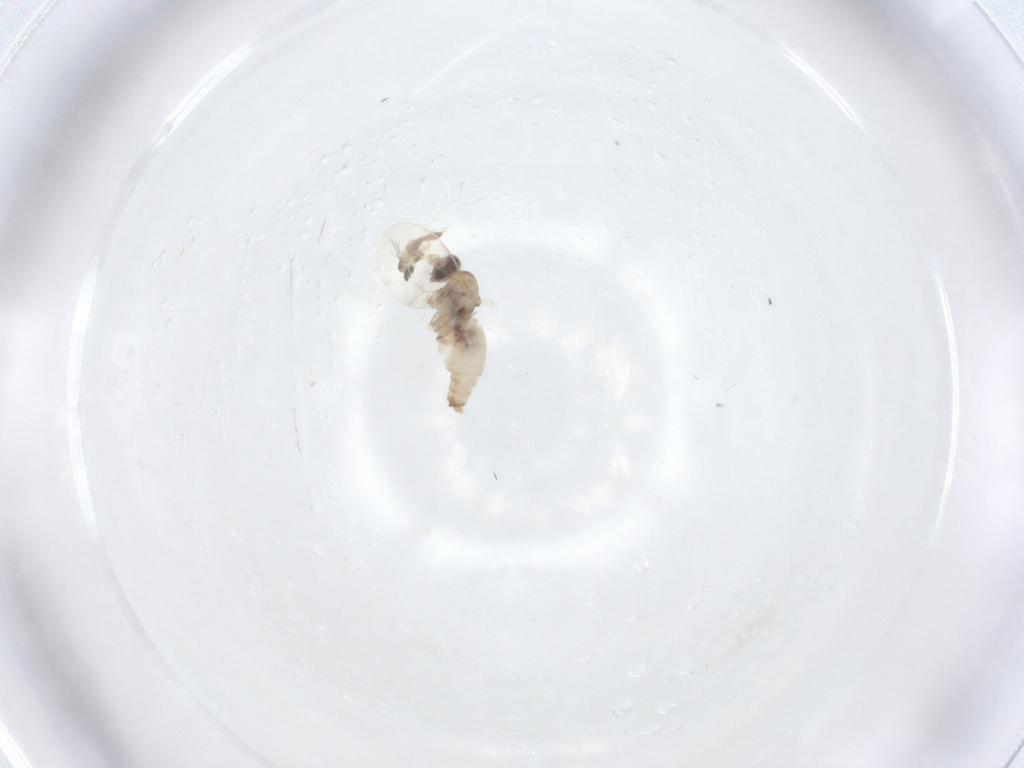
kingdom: Animalia
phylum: Arthropoda
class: Insecta
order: Diptera
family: Cecidomyiidae
